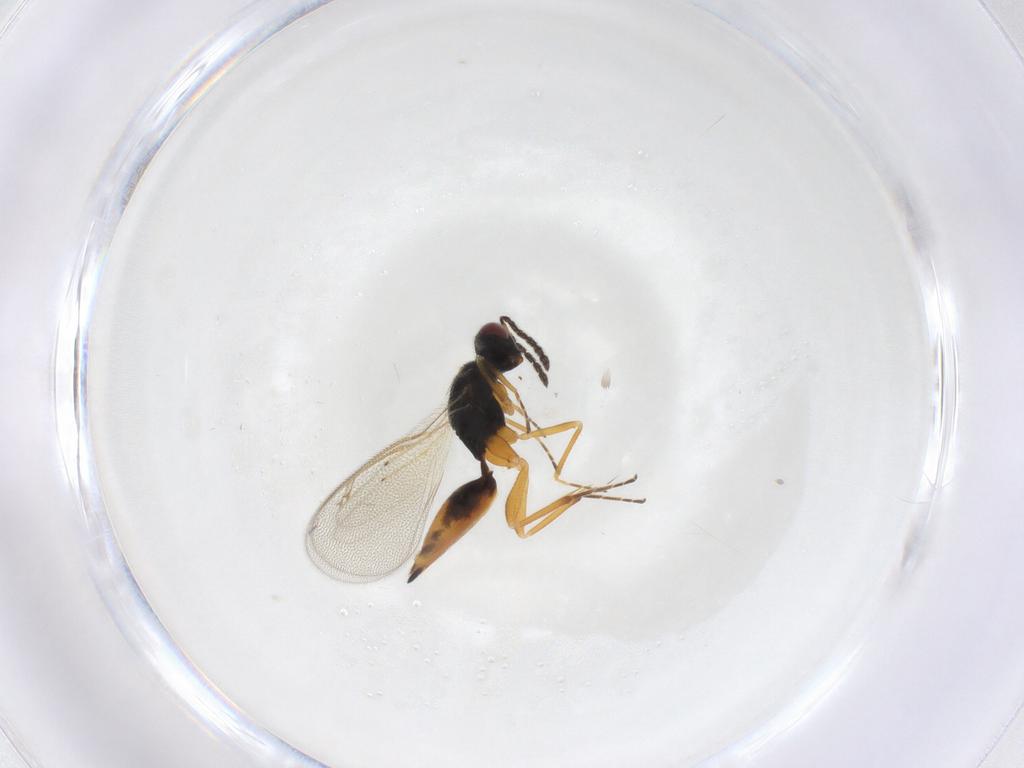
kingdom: Animalia
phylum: Arthropoda
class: Insecta
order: Hymenoptera
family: Eulophidae
